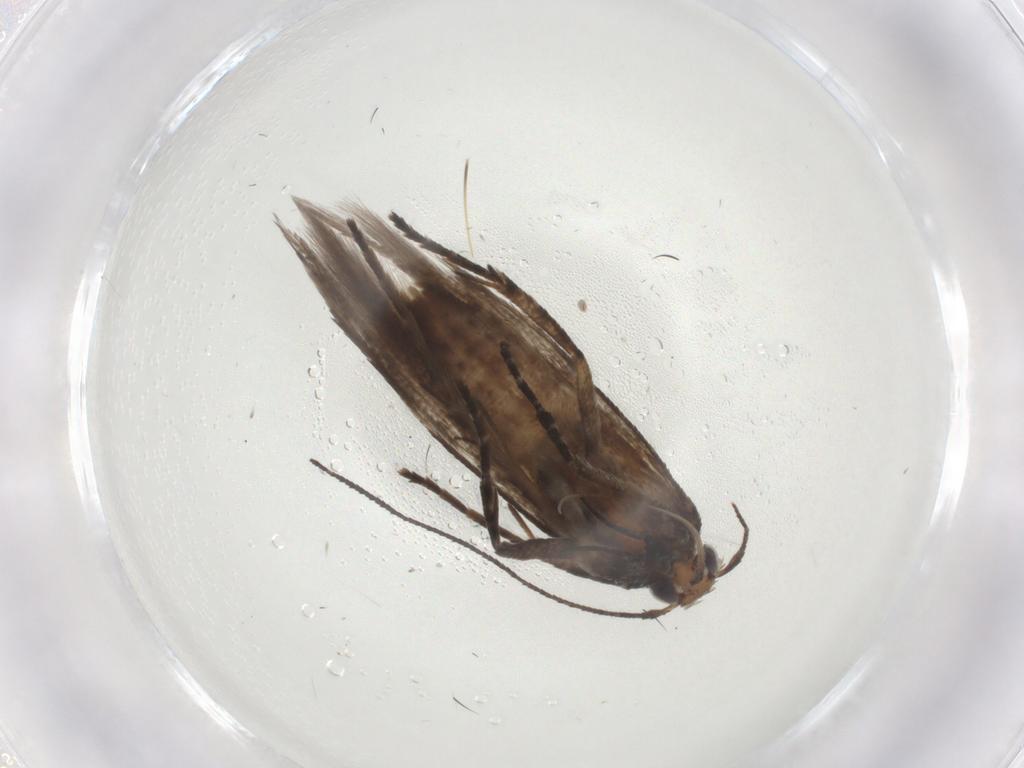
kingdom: Animalia
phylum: Arthropoda
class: Insecta
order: Lepidoptera
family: Gelechiidae
